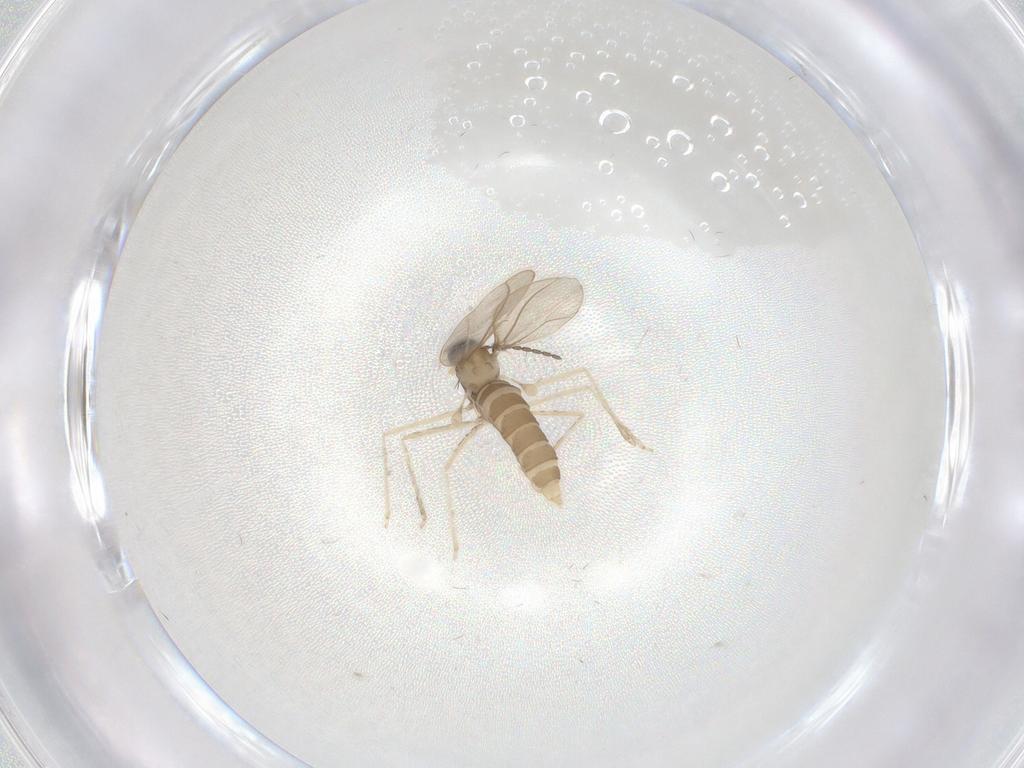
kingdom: Animalia
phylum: Arthropoda
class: Insecta
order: Diptera
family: Cecidomyiidae
